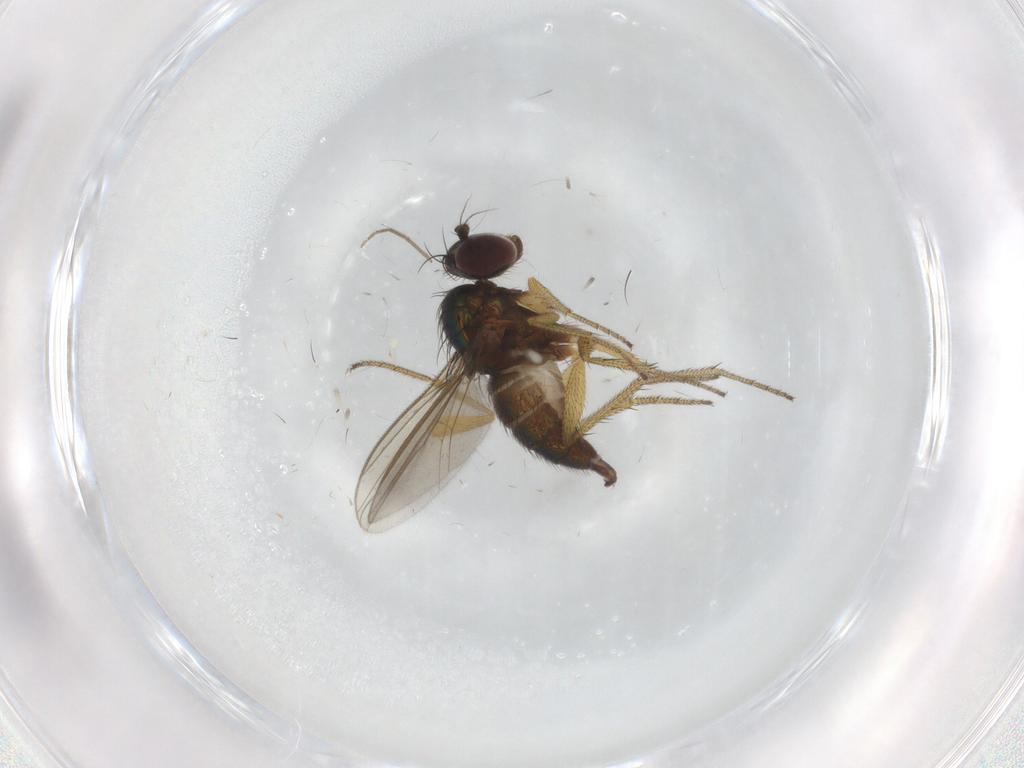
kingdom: Animalia
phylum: Arthropoda
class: Insecta
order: Diptera
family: Dolichopodidae
